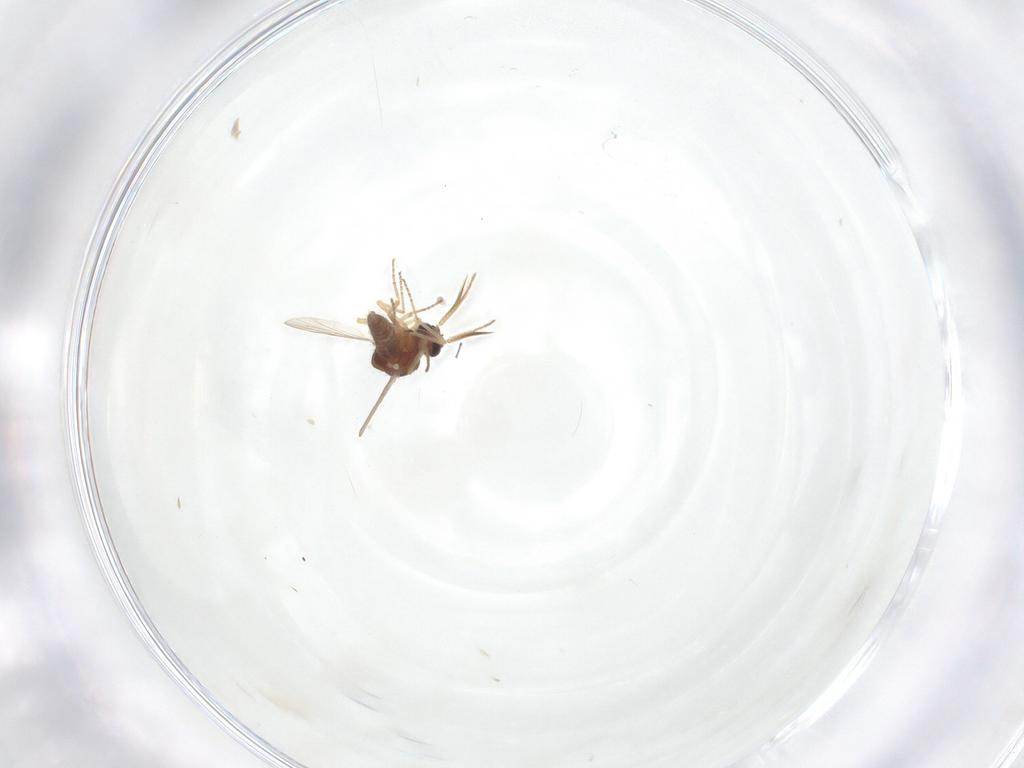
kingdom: Animalia
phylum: Arthropoda
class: Insecta
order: Diptera
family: Ceratopogonidae
